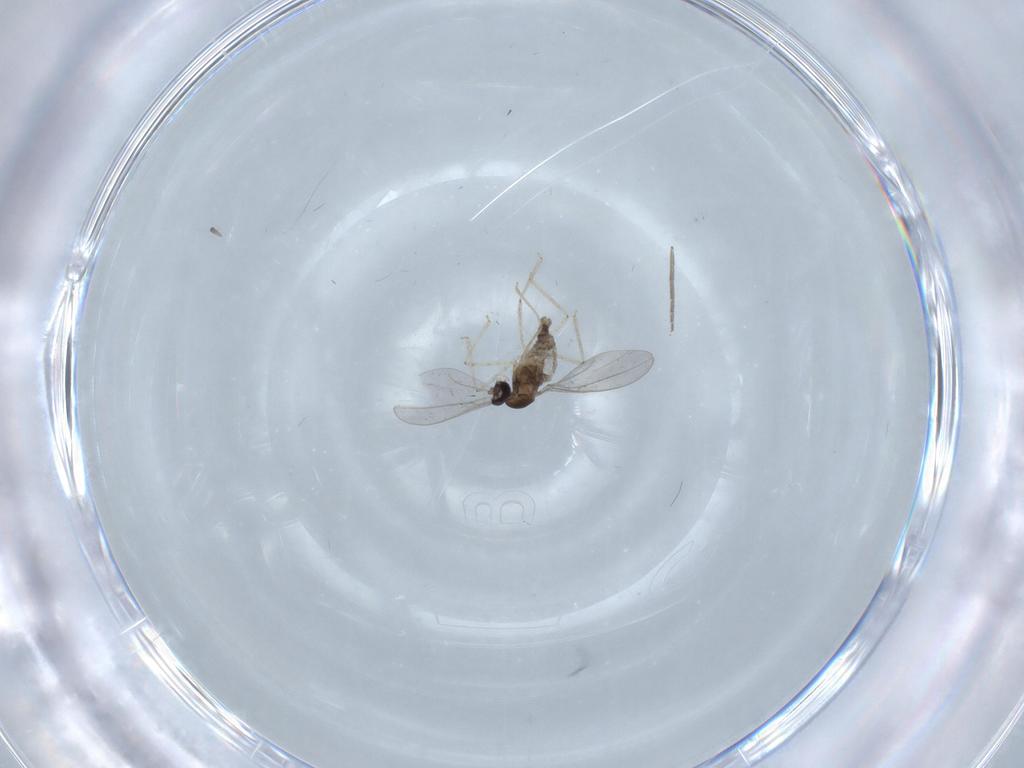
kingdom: Animalia
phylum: Arthropoda
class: Insecta
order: Diptera
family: Cecidomyiidae
